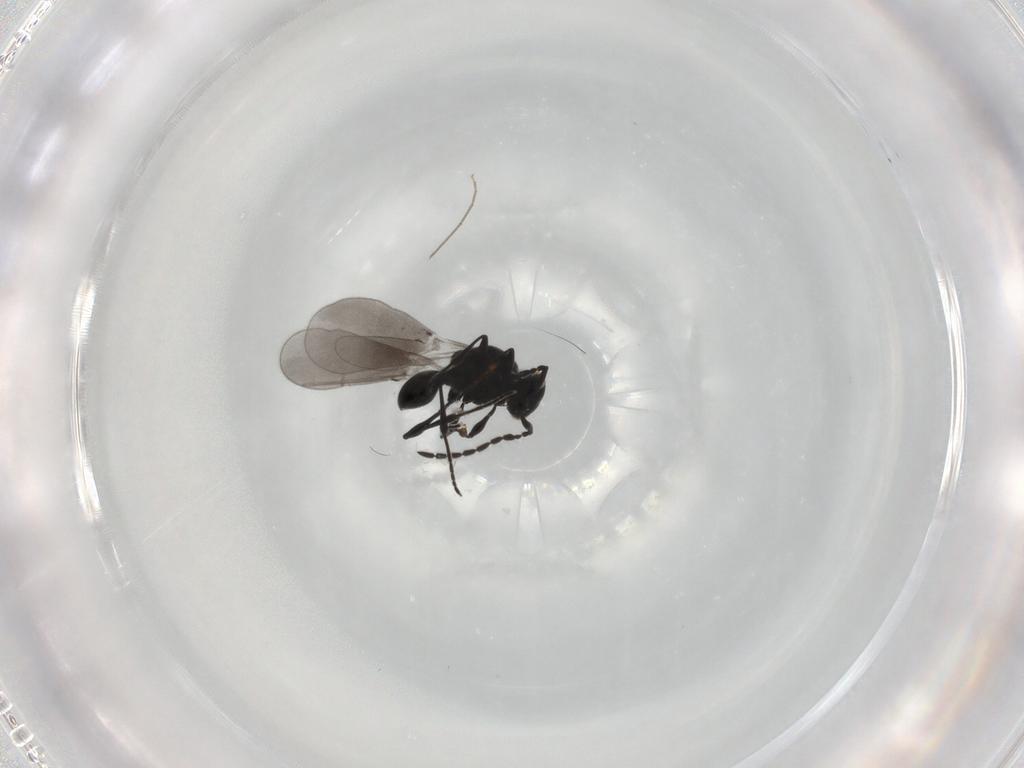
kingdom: Animalia
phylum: Arthropoda
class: Insecta
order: Hymenoptera
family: Platygastridae
